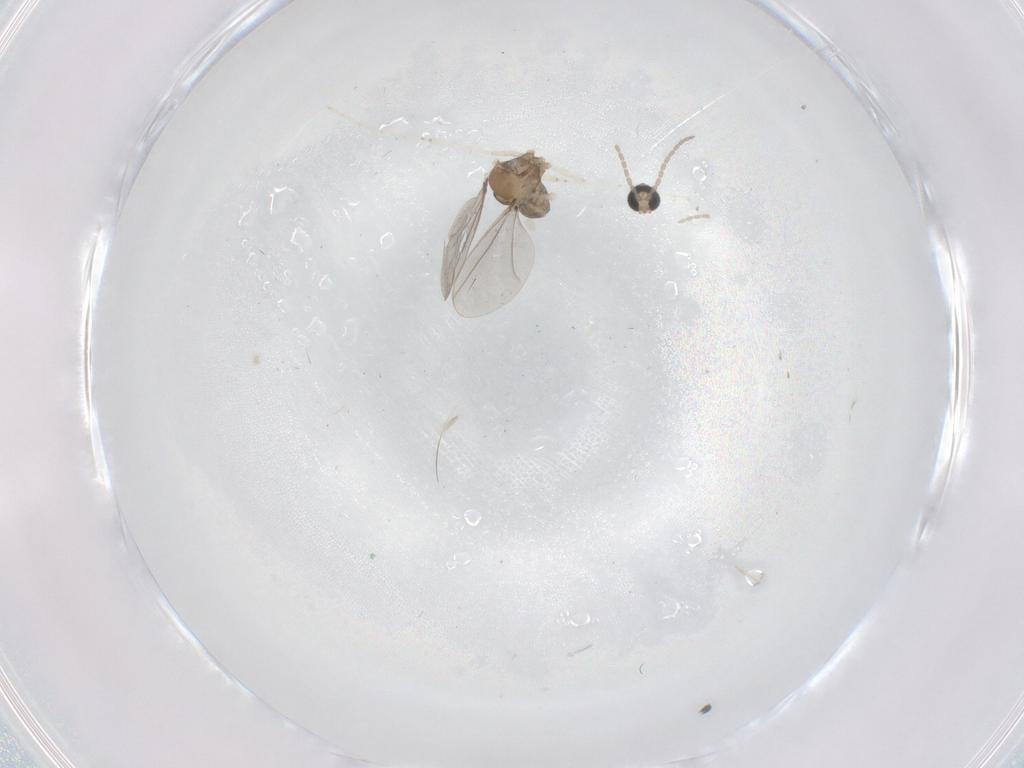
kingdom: Animalia
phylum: Arthropoda
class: Insecta
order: Diptera
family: Cecidomyiidae
